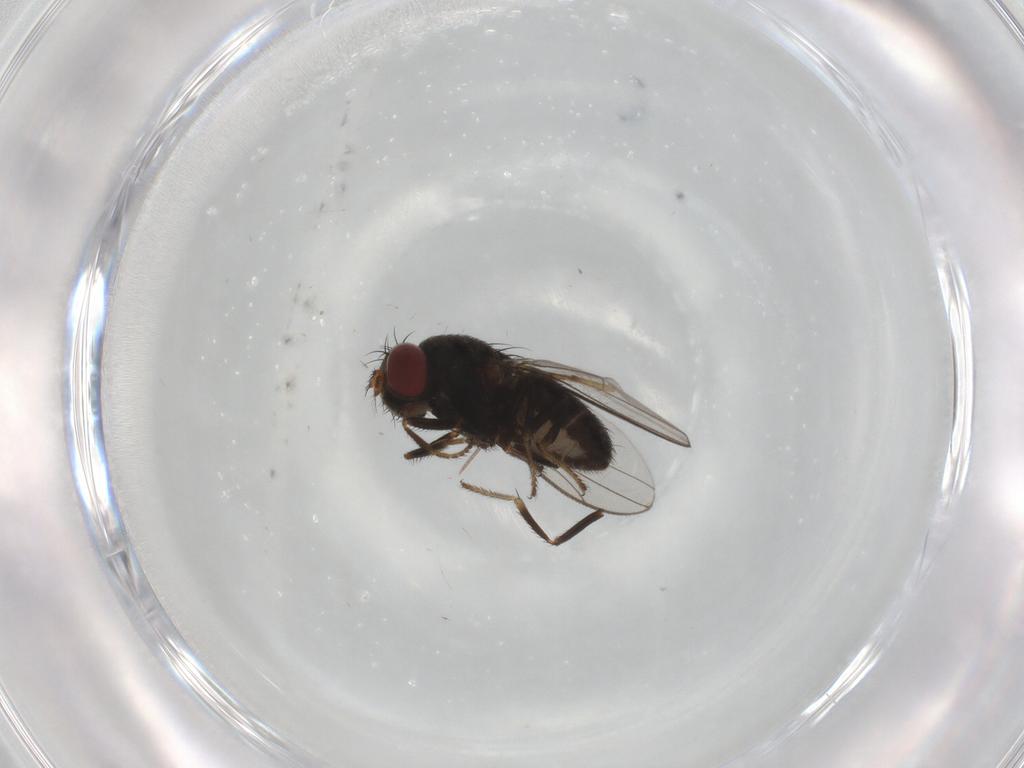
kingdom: Animalia
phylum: Arthropoda
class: Insecta
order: Diptera
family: Ephydridae
